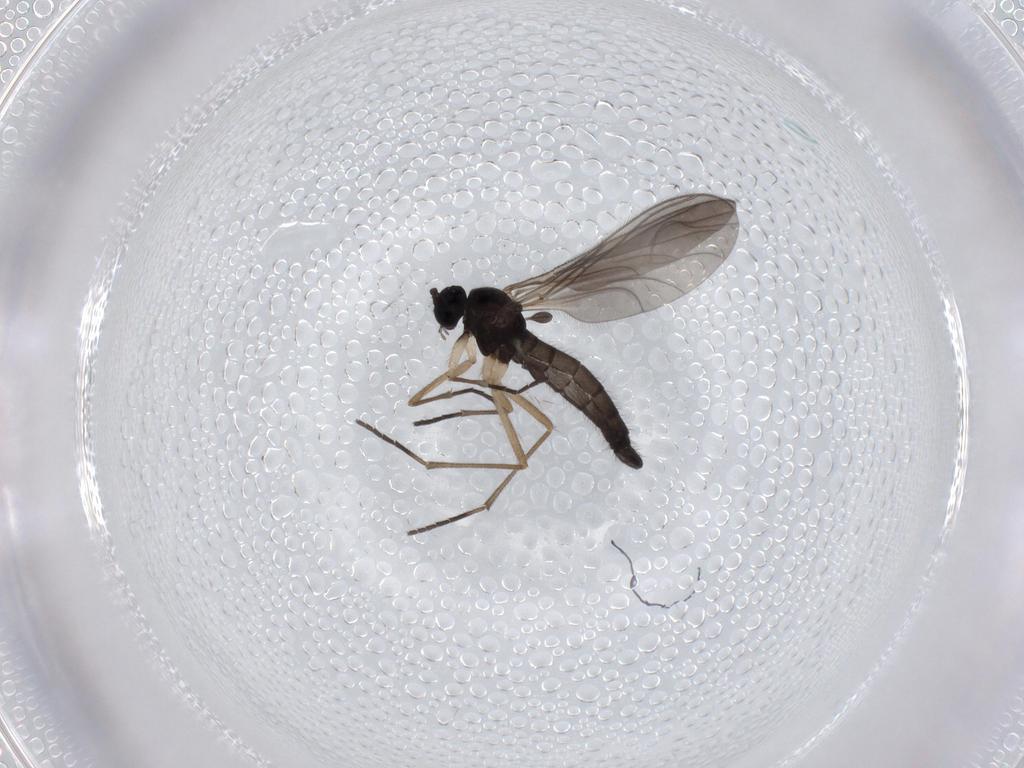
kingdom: Animalia
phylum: Arthropoda
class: Insecta
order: Diptera
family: Sciaridae
